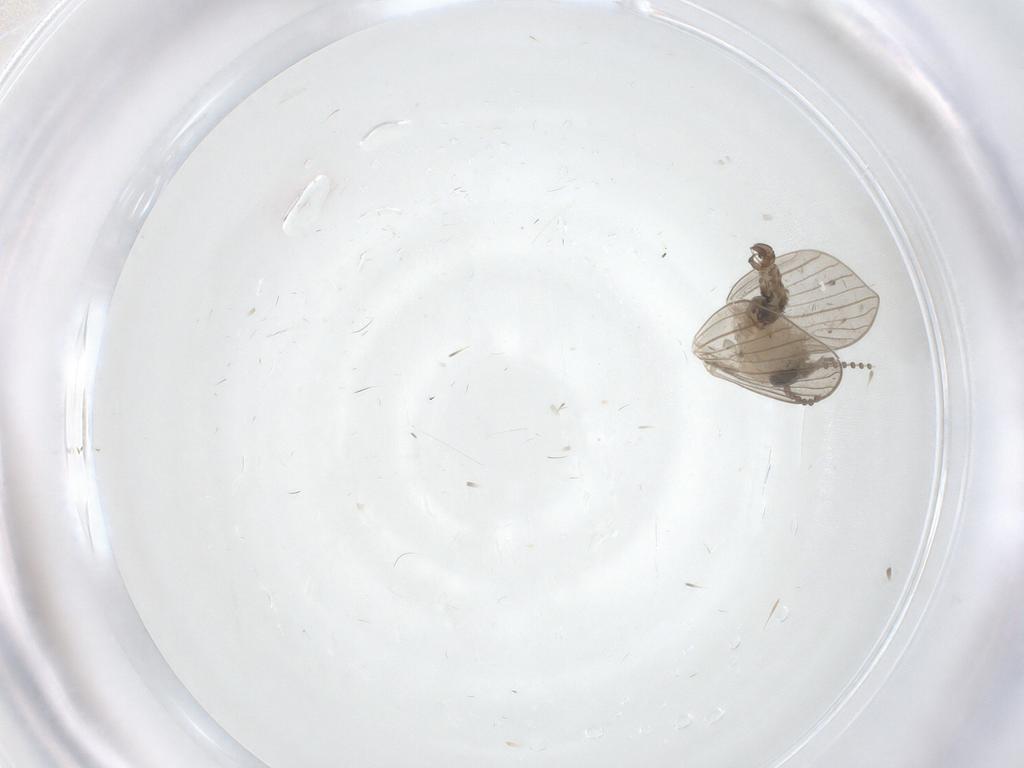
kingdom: Animalia
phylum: Arthropoda
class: Insecta
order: Diptera
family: Psychodidae
